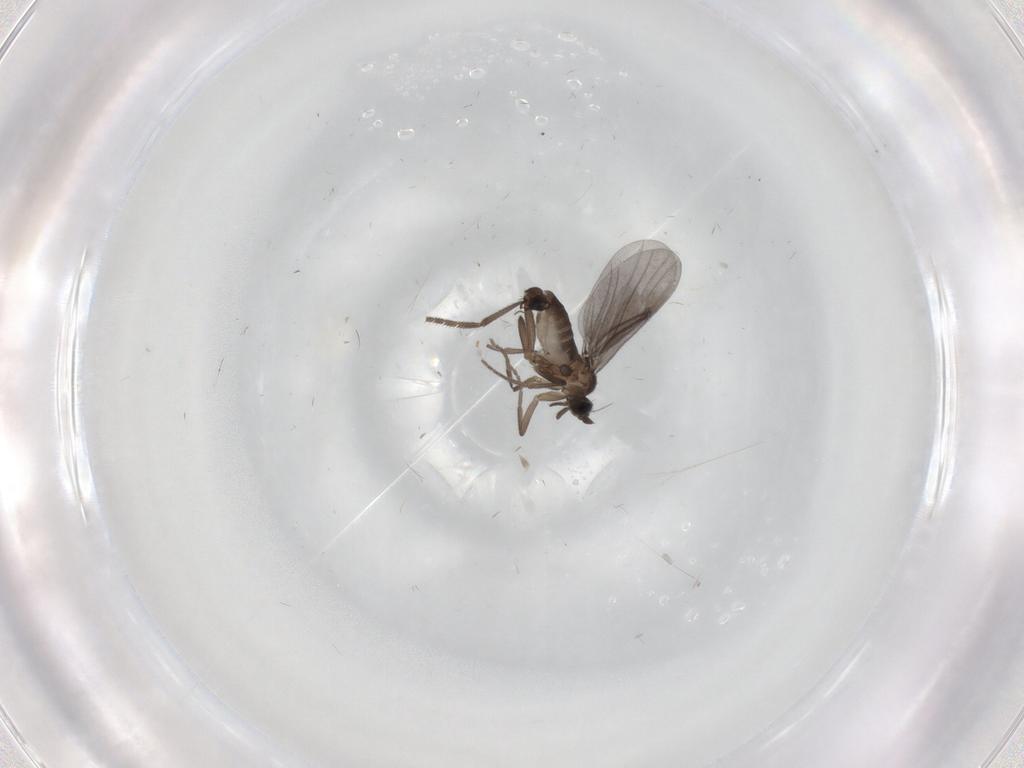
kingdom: Animalia
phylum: Arthropoda
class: Insecta
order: Diptera
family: Phoridae
